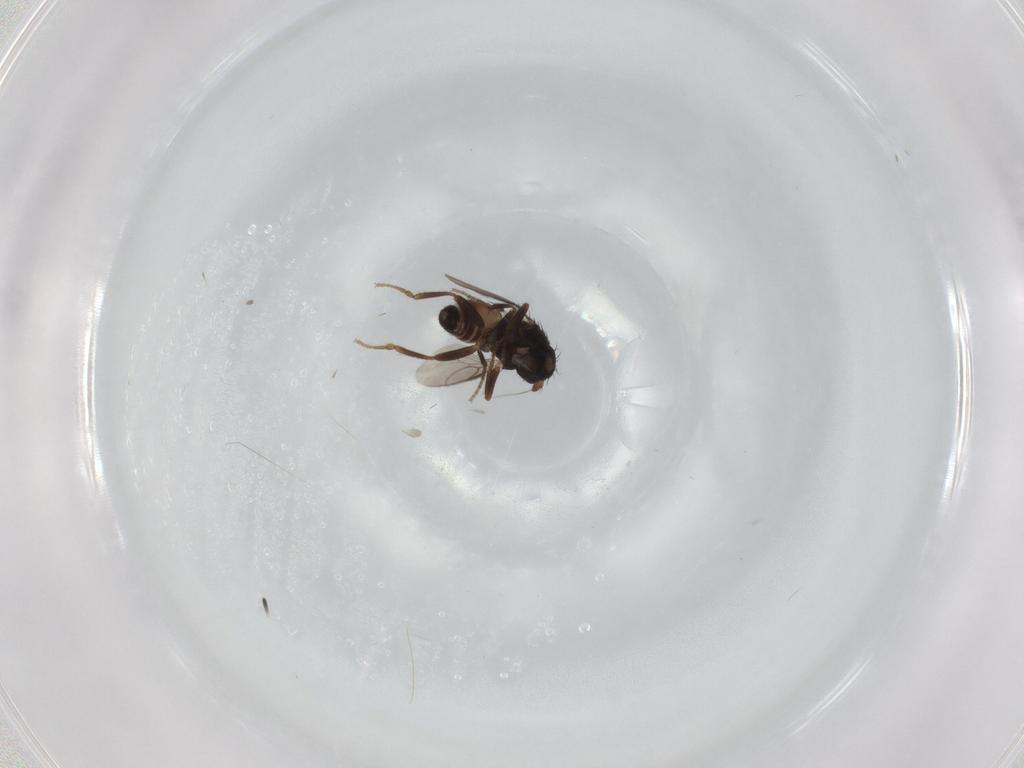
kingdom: Animalia
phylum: Arthropoda
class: Insecta
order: Diptera
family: Sphaeroceridae
